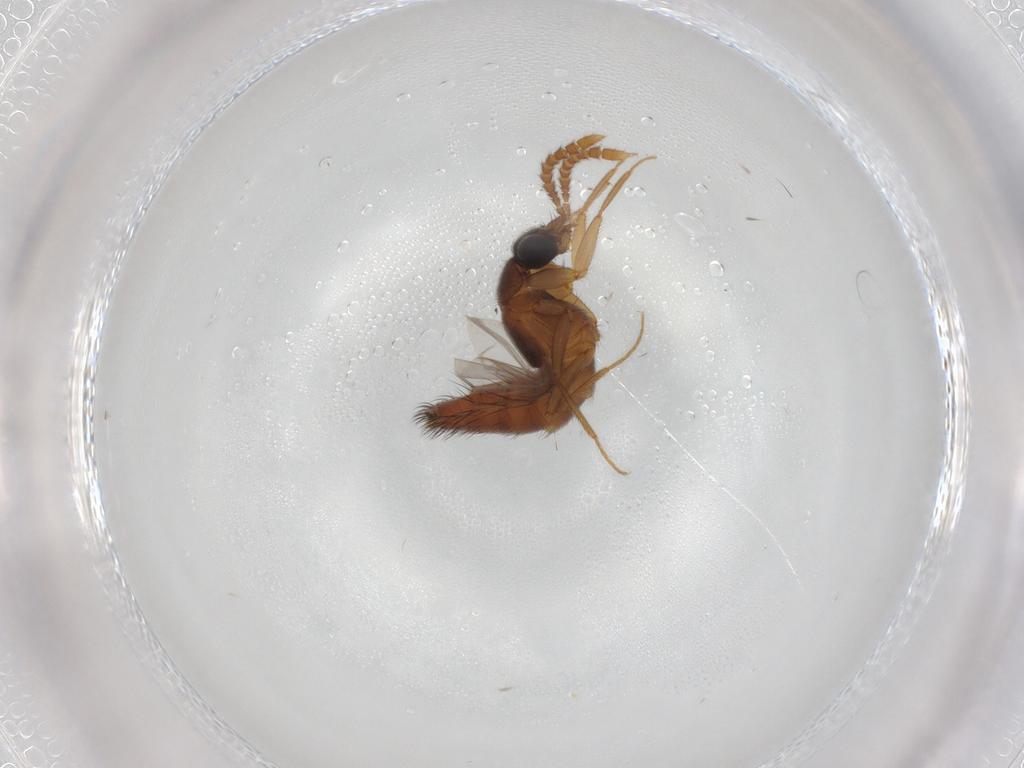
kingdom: Animalia
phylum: Arthropoda
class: Insecta
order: Coleoptera
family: Staphylinidae
